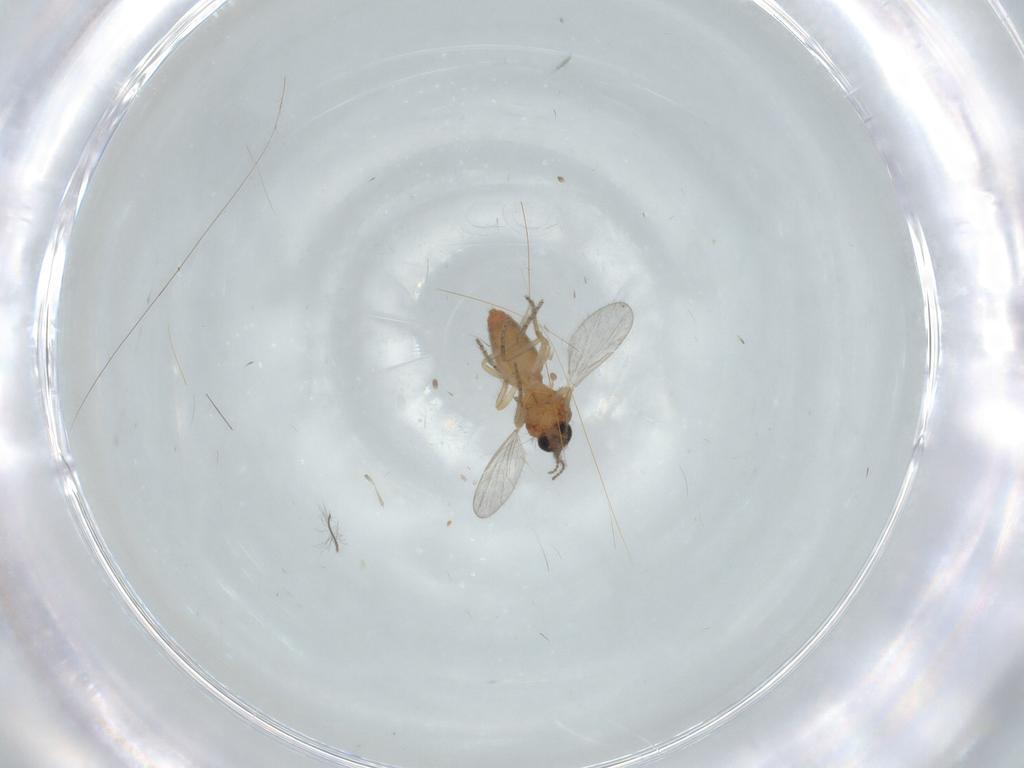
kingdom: Animalia
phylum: Arthropoda
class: Insecta
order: Diptera
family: Ceratopogonidae
